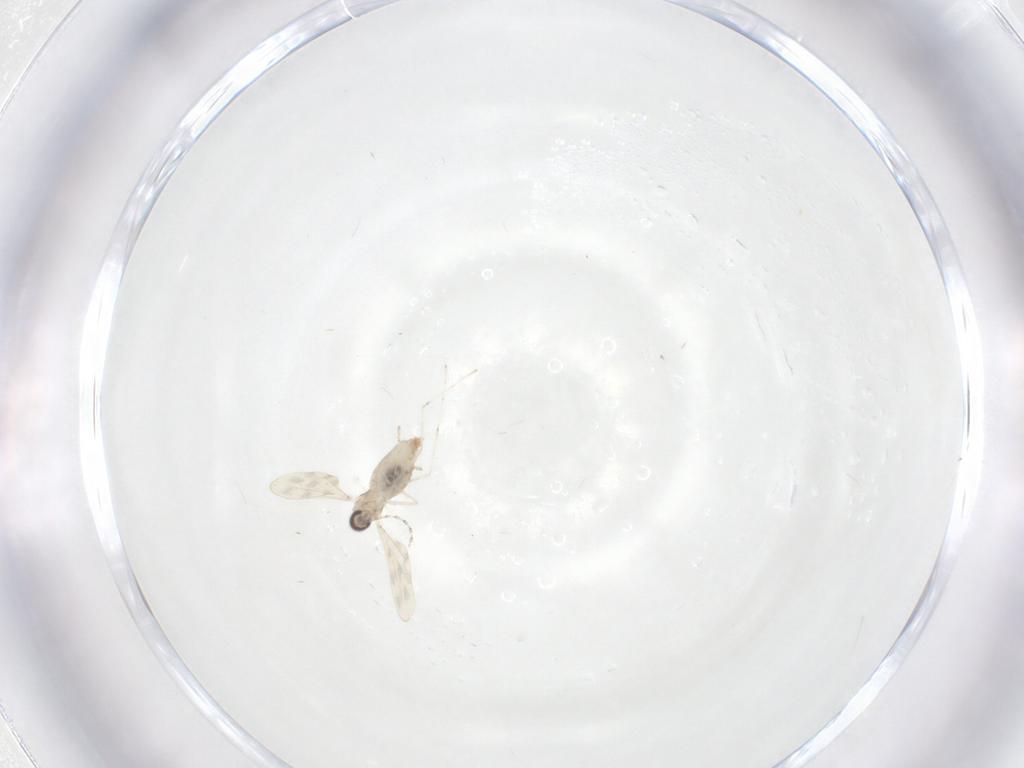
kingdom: Animalia
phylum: Arthropoda
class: Insecta
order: Diptera
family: Cecidomyiidae
